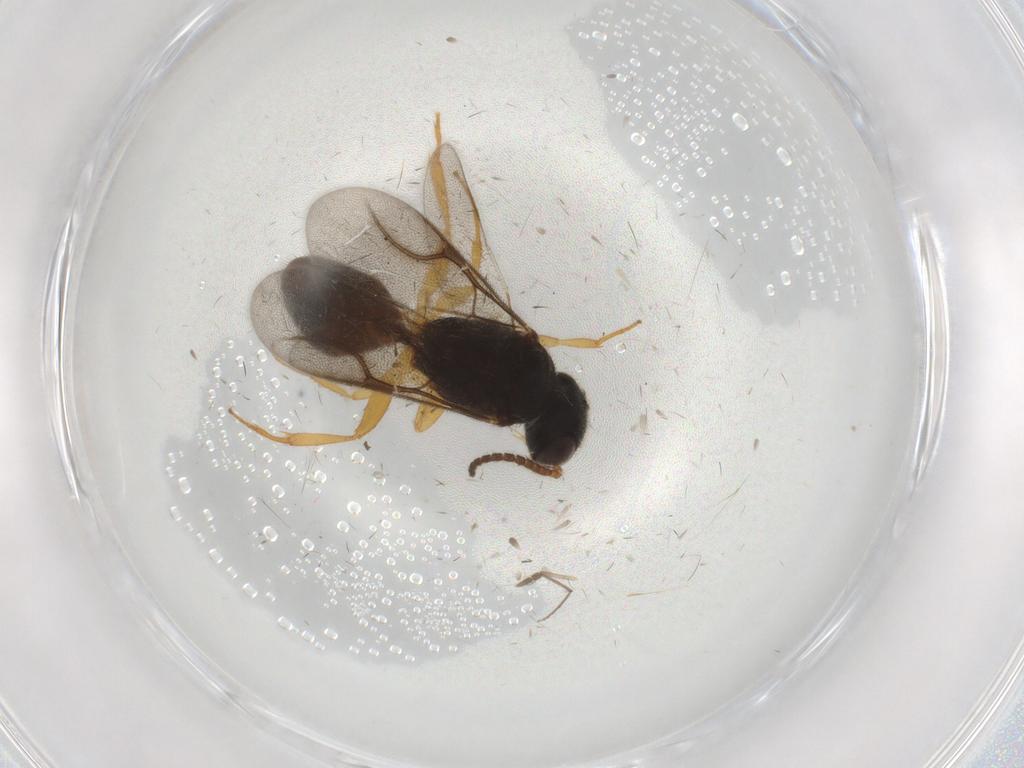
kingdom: Animalia
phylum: Arthropoda
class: Insecta
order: Hymenoptera
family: Bethylidae
